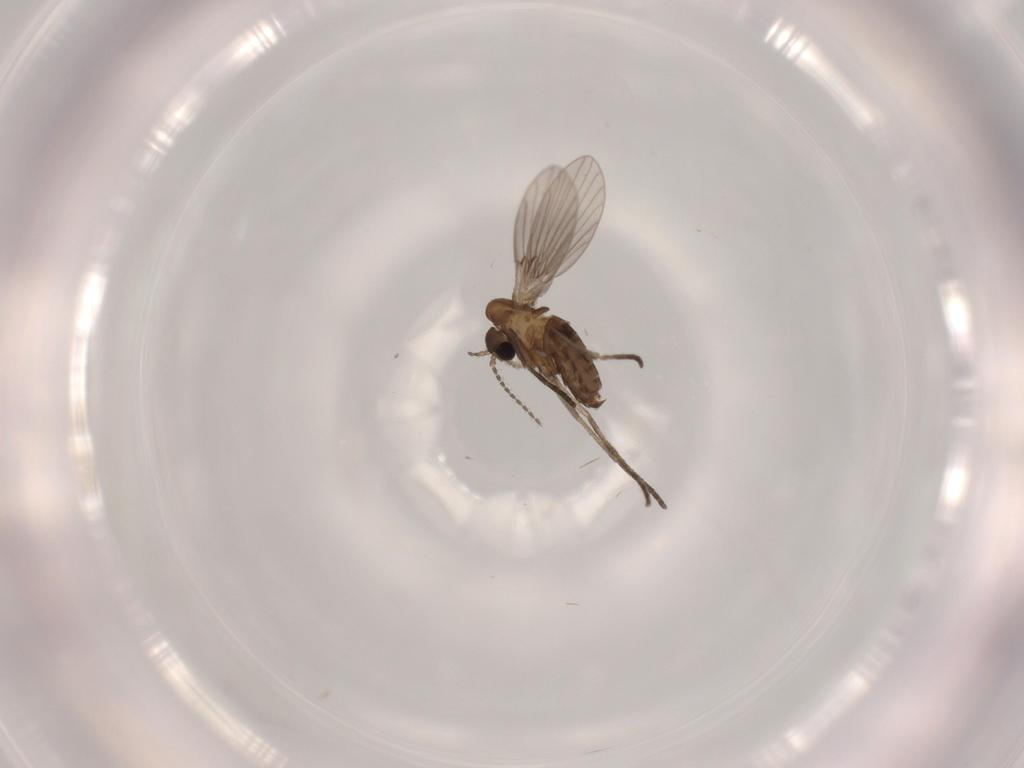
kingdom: Animalia
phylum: Arthropoda
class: Insecta
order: Diptera
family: Psychodidae
